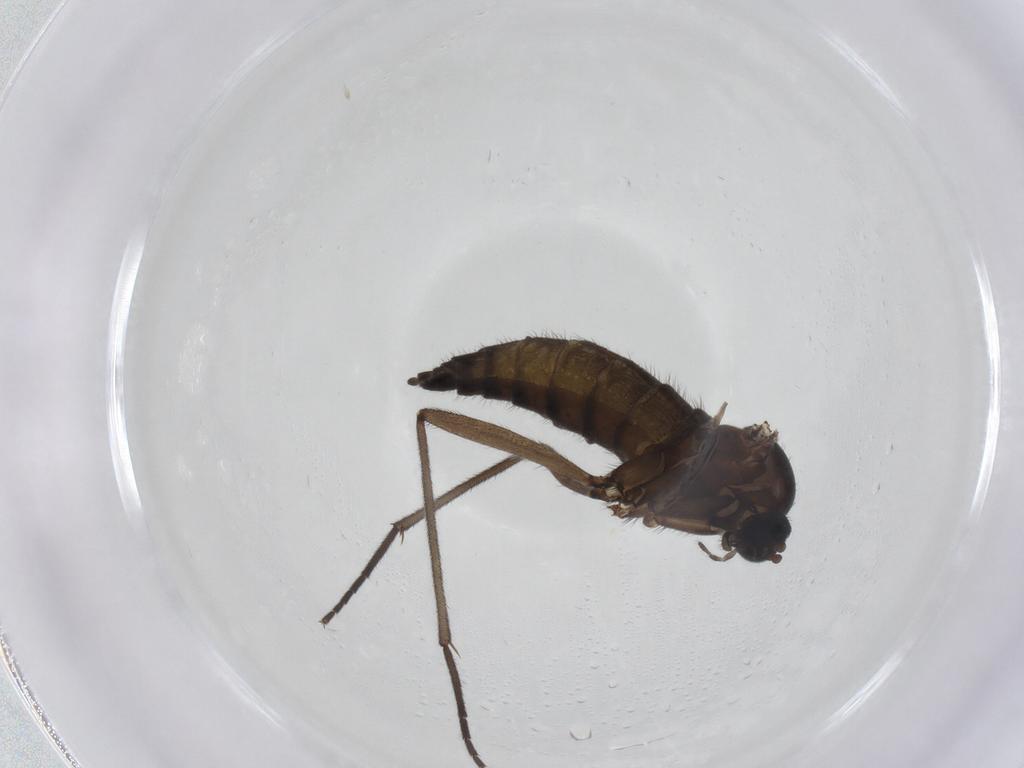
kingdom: Animalia
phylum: Arthropoda
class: Insecta
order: Diptera
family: Sciaridae
